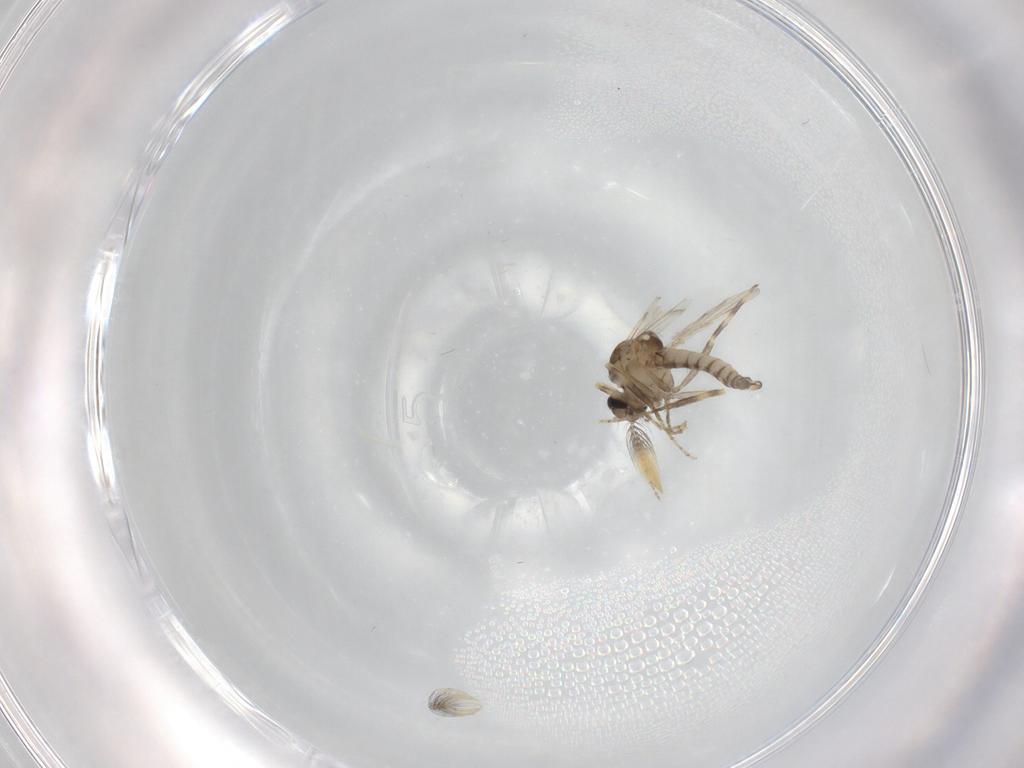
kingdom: Animalia
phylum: Arthropoda
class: Insecta
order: Diptera
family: Ceratopogonidae
